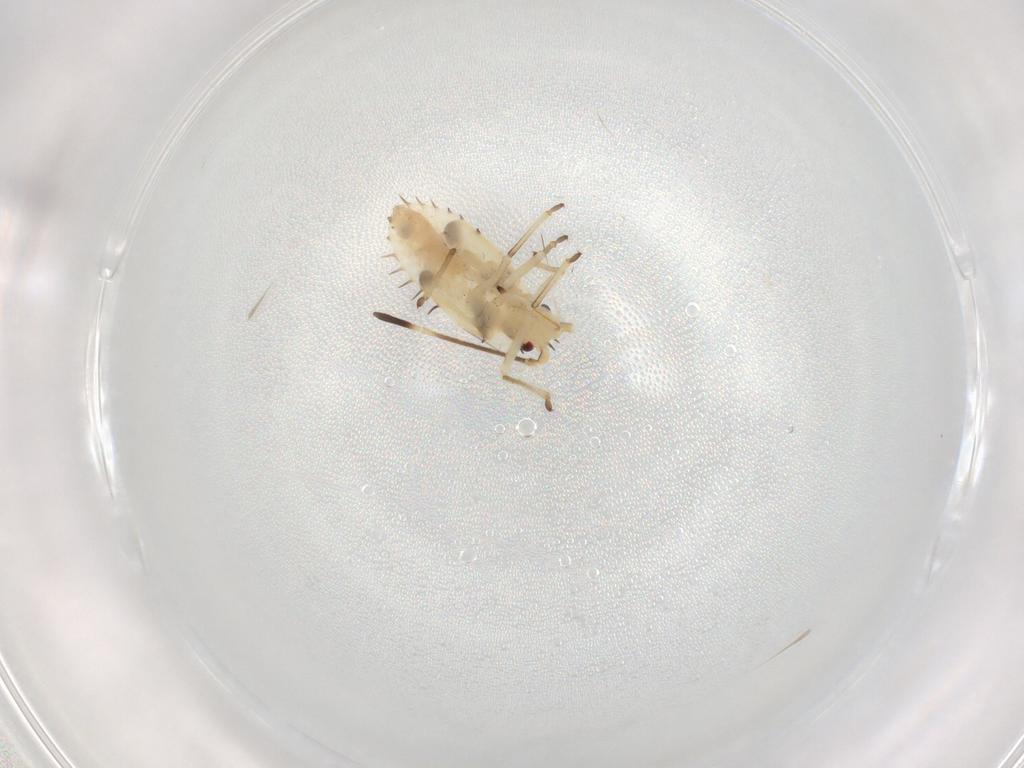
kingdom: Animalia
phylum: Arthropoda
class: Insecta
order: Hemiptera
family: Tingidae
